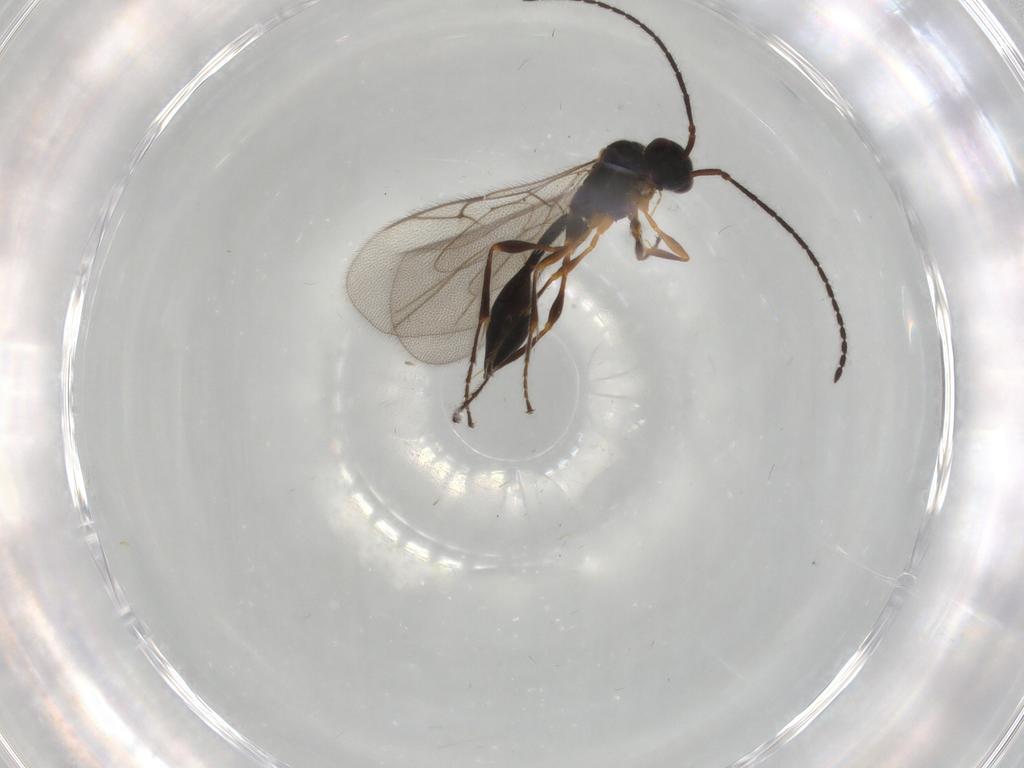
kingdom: Animalia
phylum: Arthropoda
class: Insecta
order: Hymenoptera
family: Diapriidae
